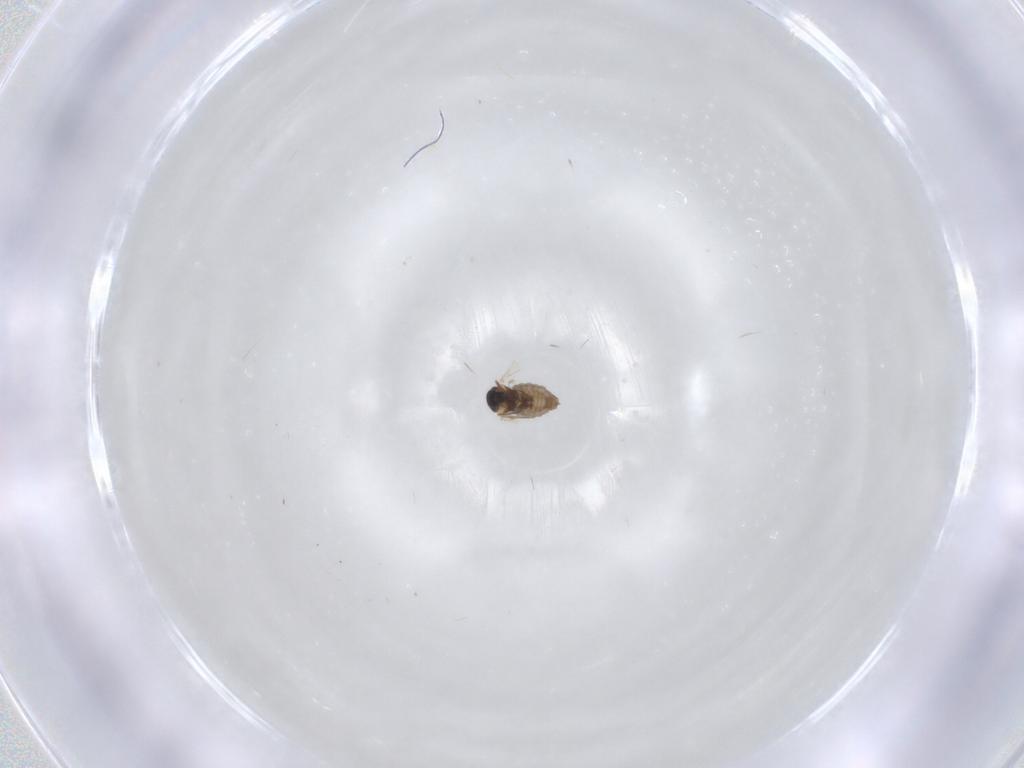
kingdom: Animalia
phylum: Arthropoda
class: Insecta
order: Diptera
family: Cecidomyiidae
